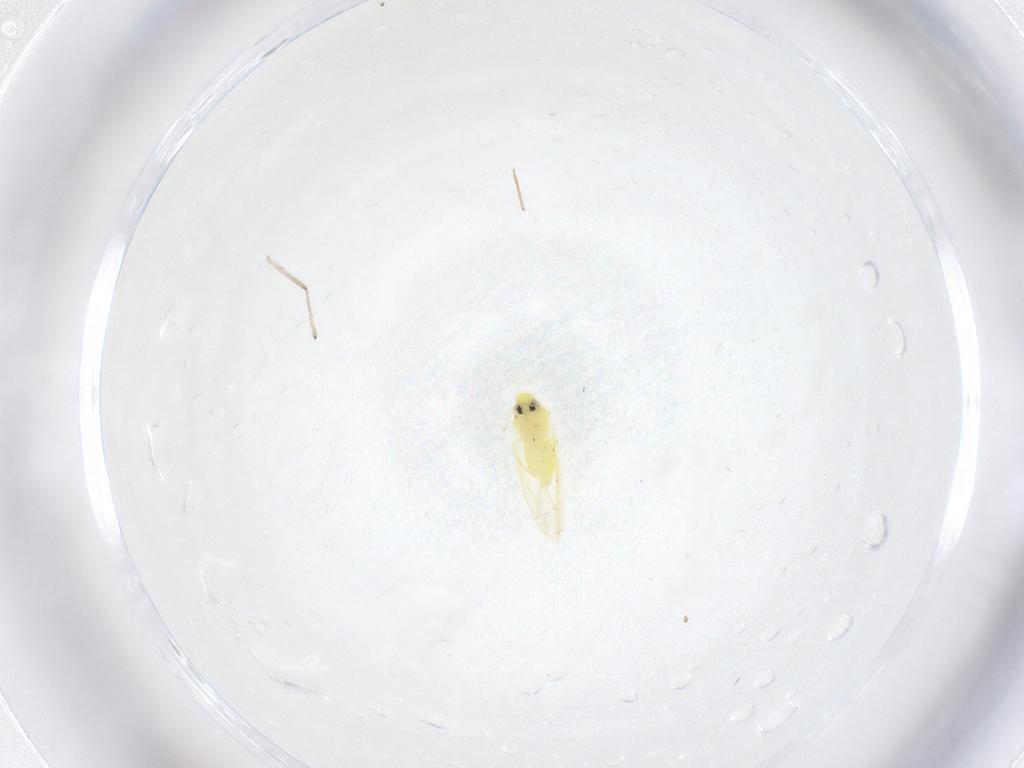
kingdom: Animalia
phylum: Arthropoda
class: Insecta
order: Hemiptera
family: Aleyrodidae
